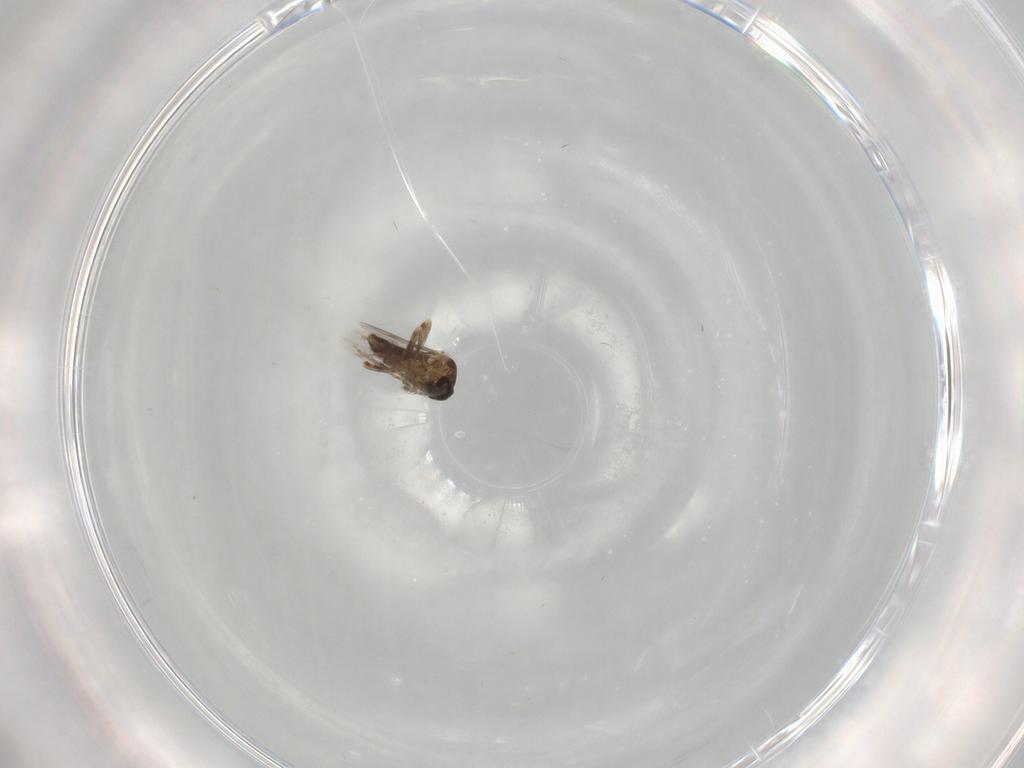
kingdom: Animalia
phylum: Arthropoda
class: Insecta
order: Diptera
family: Ceratopogonidae
